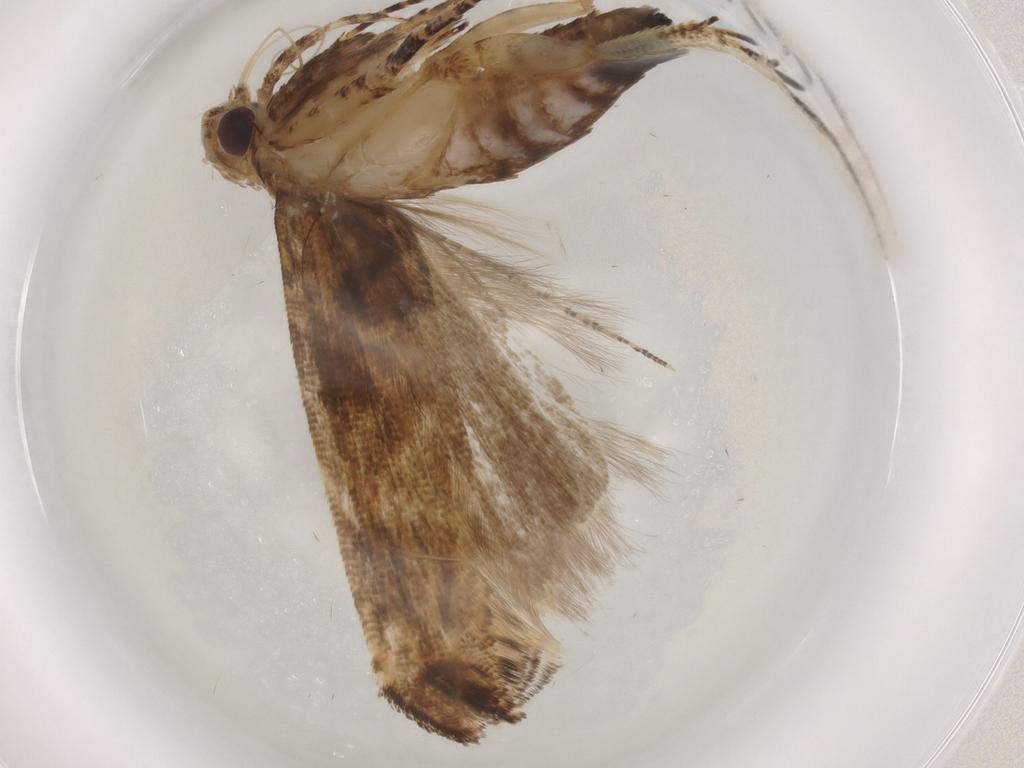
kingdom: Animalia
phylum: Arthropoda
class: Insecta
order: Lepidoptera
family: Gelechiidae
